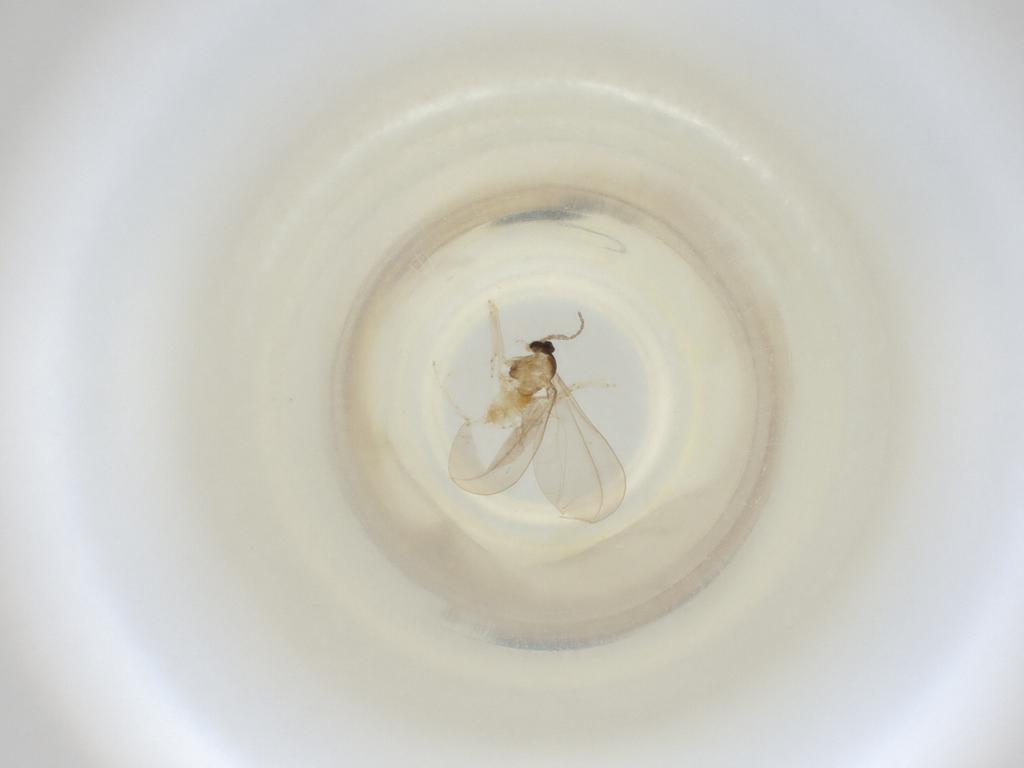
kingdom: Animalia
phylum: Arthropoda
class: Insecta
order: Diptera
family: Cecidomyiidae
